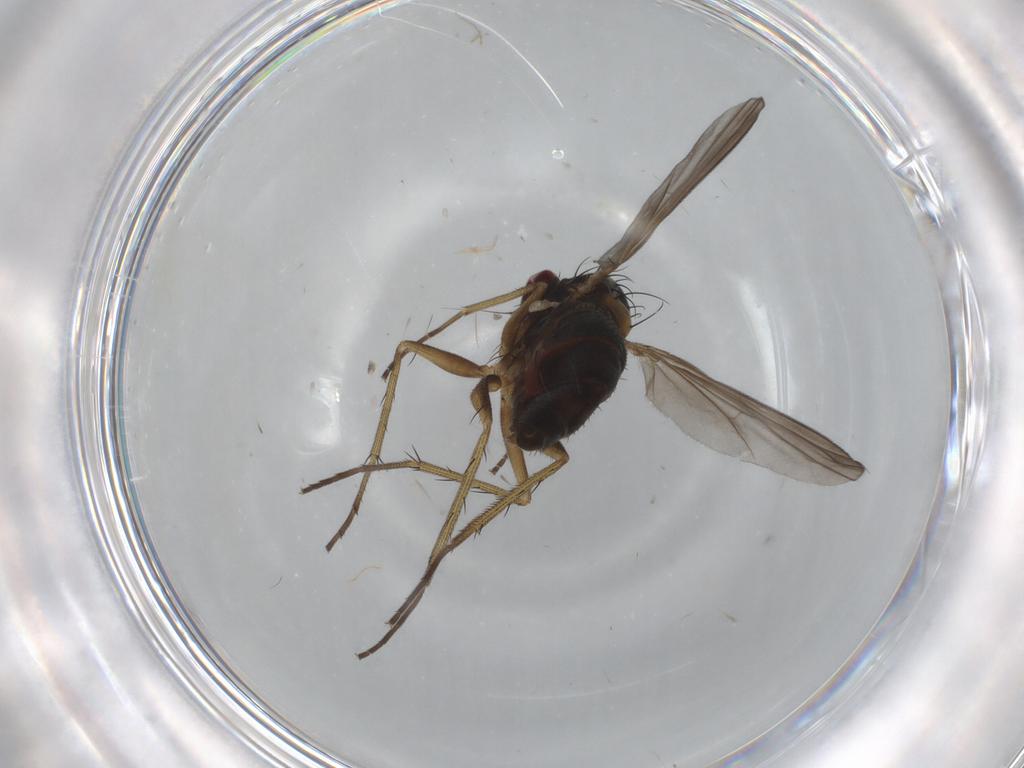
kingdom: Animalia
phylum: Arthropoda
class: Insecta
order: Diptera
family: Dolichopodidae
